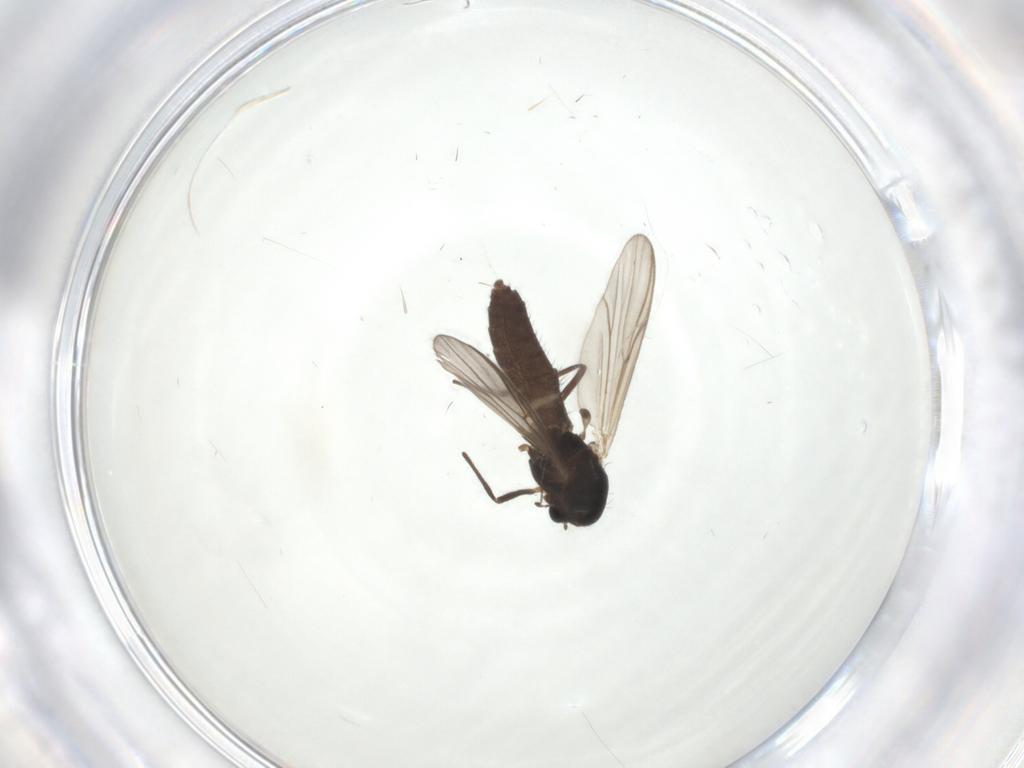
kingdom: Animalia
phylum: Arthropoda
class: Insecta
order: Diptera
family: Chironomidae
